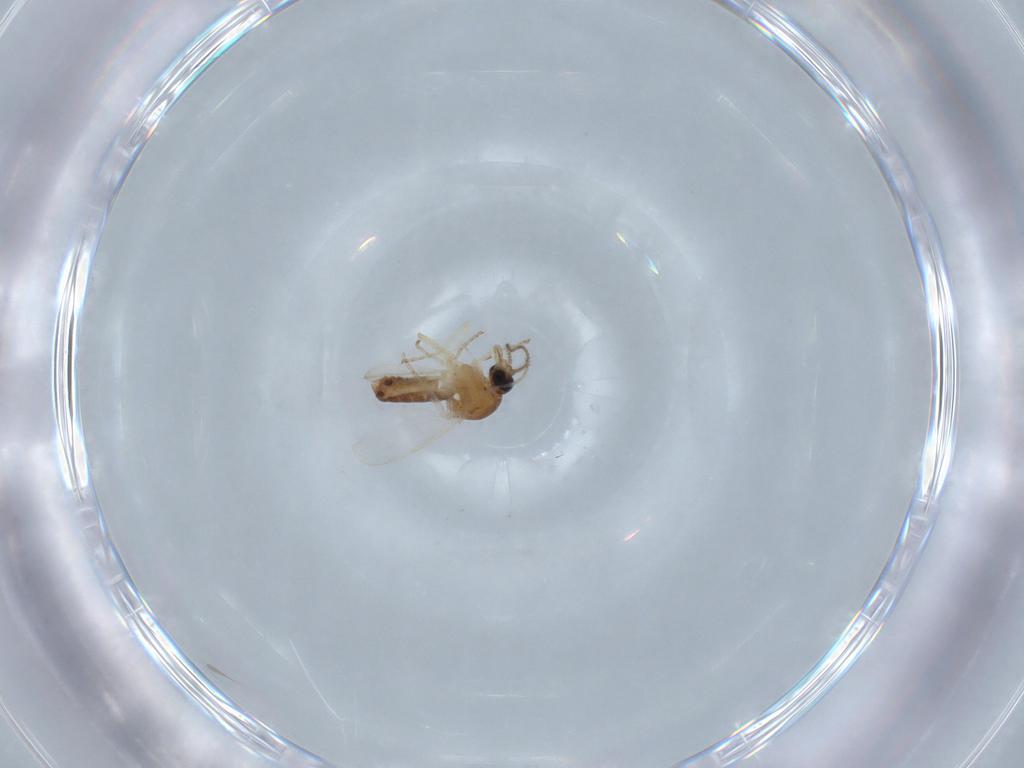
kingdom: Animalia
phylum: Arthropoda
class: Insecta
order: Diptera
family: Ceratopogonidae
